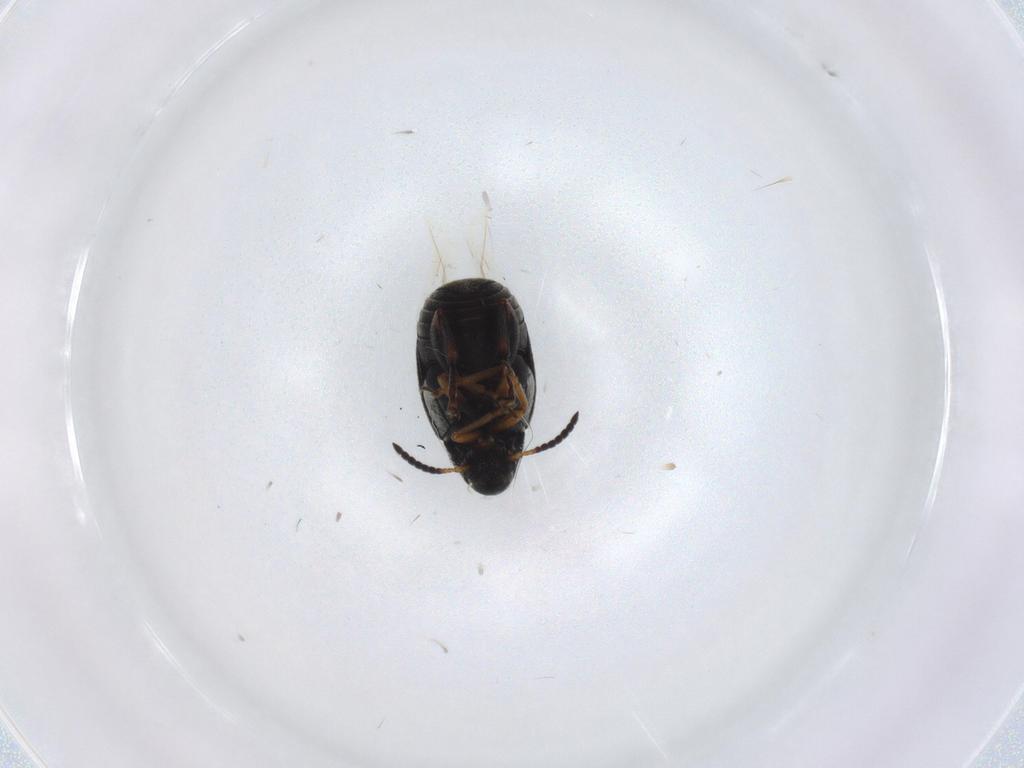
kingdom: Animalia
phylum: Arthropoda
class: Insecta
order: Coleoptera
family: Chrysomelidae
